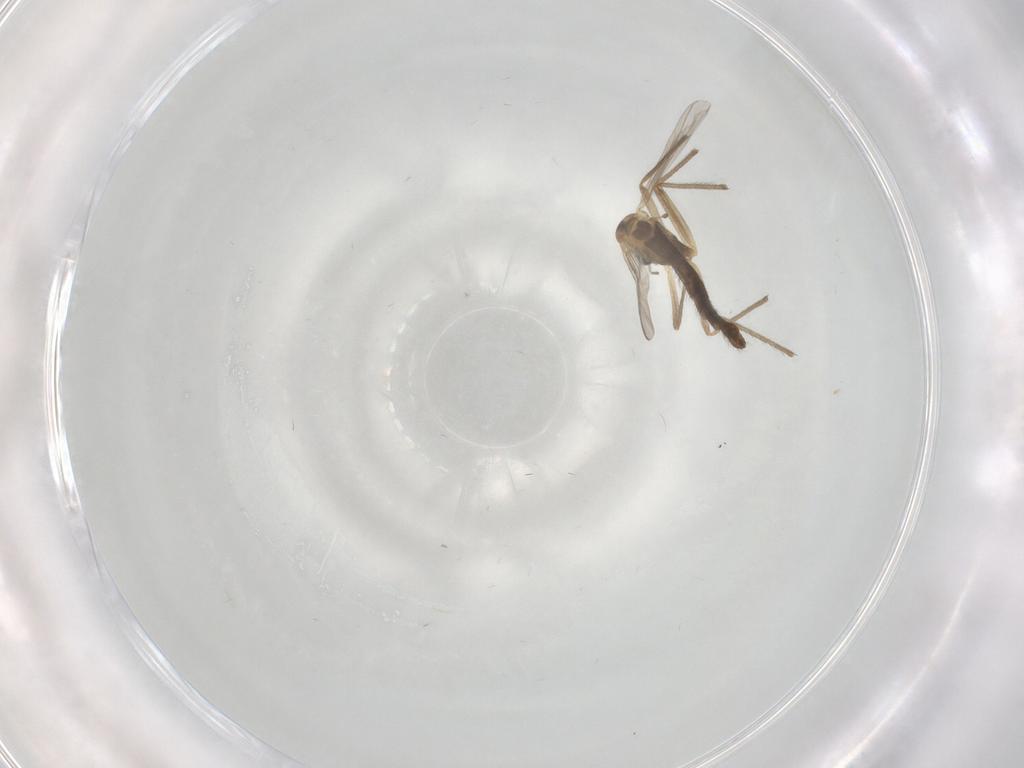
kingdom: Animalia
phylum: Arthropoda
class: Insecta
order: Diptera
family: Chironomidae
